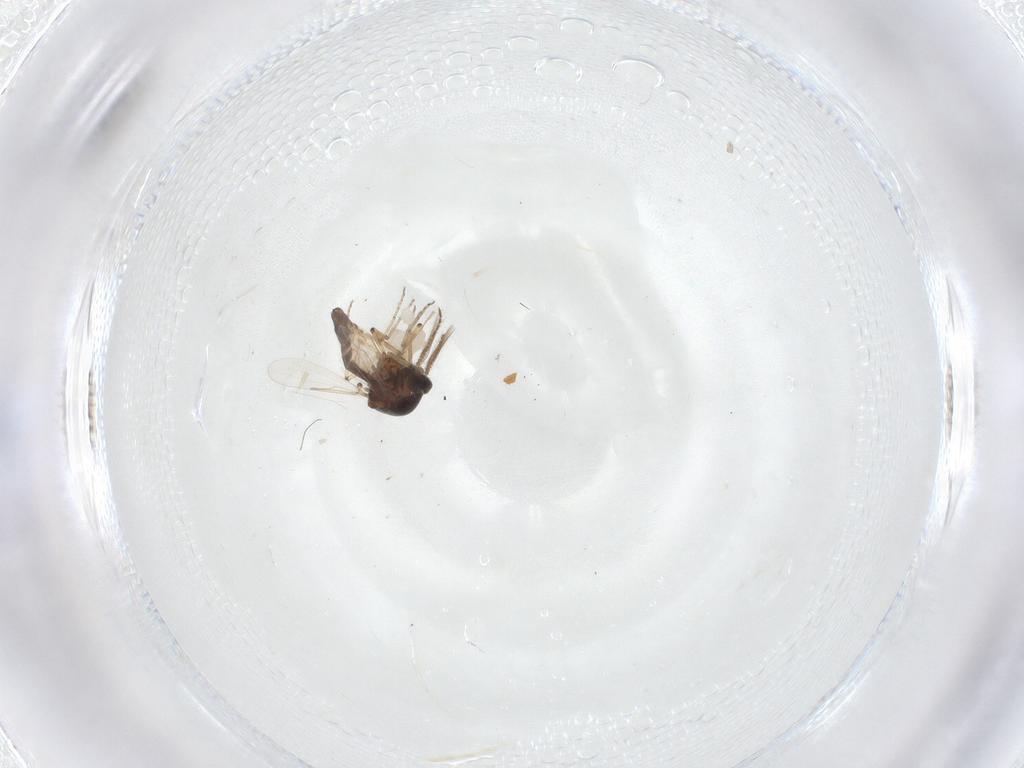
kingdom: Animalia
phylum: Arthropoda
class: Insecta
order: Diptera
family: Ceratopogonidae
